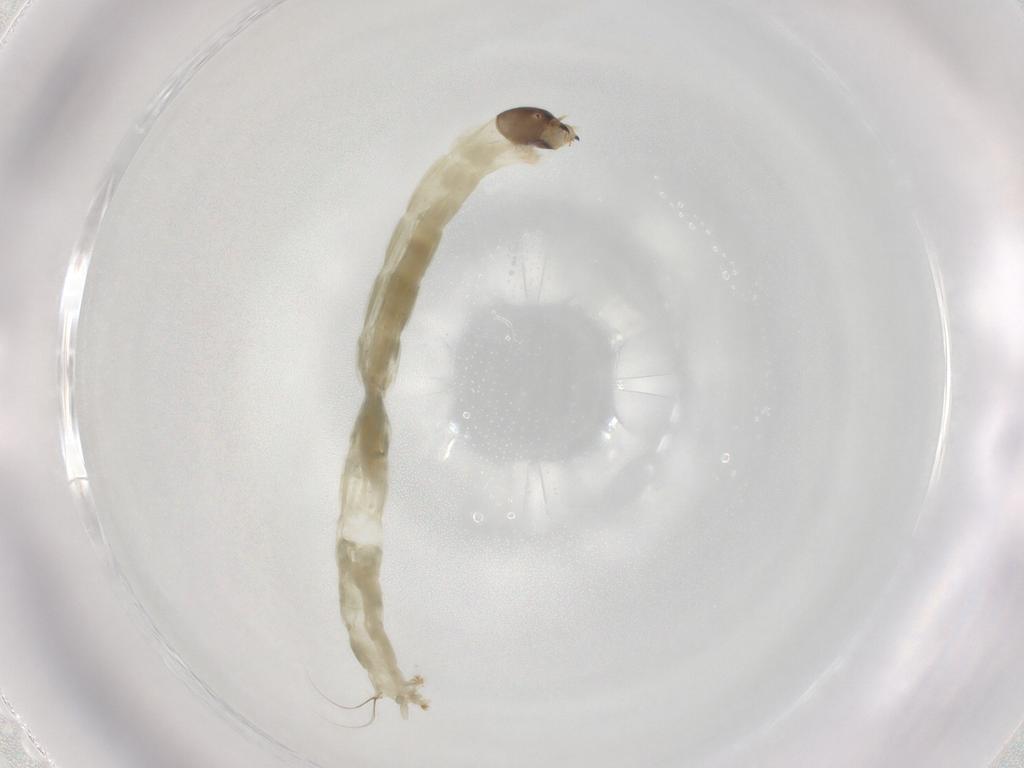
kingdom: Animalia
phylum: Arthropoda
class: Insecta
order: Diptera
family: Chironomidae
